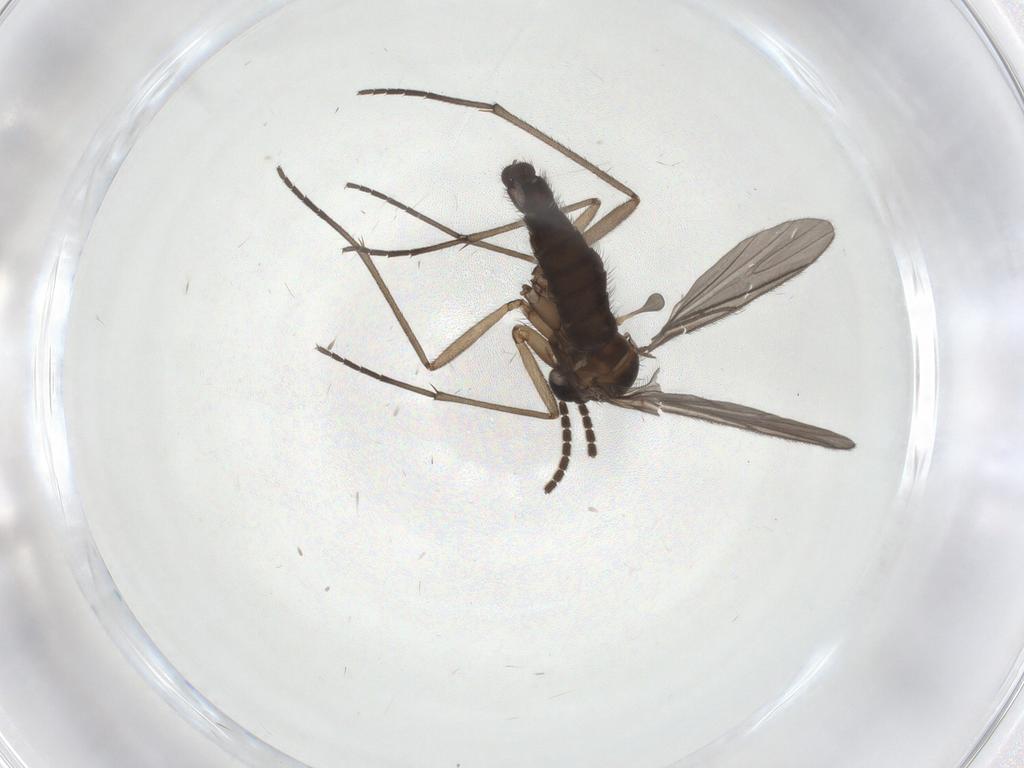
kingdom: Animalia
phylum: Arthropoda
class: Insecta
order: Diptera
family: Sciaridae
